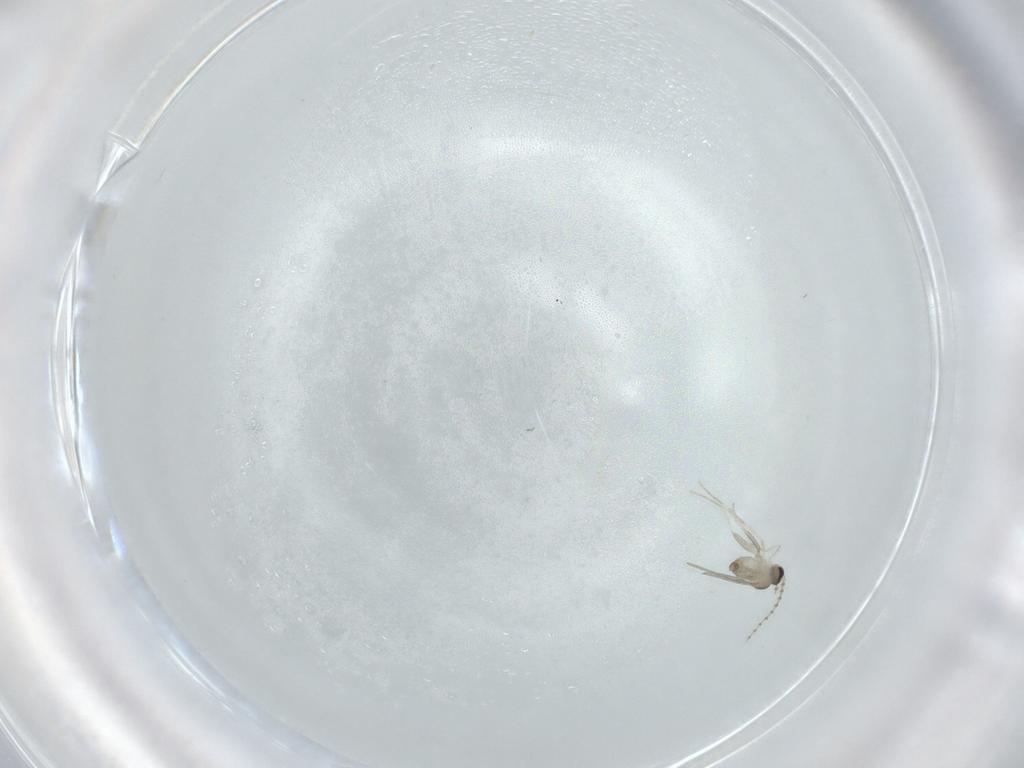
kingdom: Animalia
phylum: Arthropoda
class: Insecta
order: Diptera
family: Cecidomyiidae
